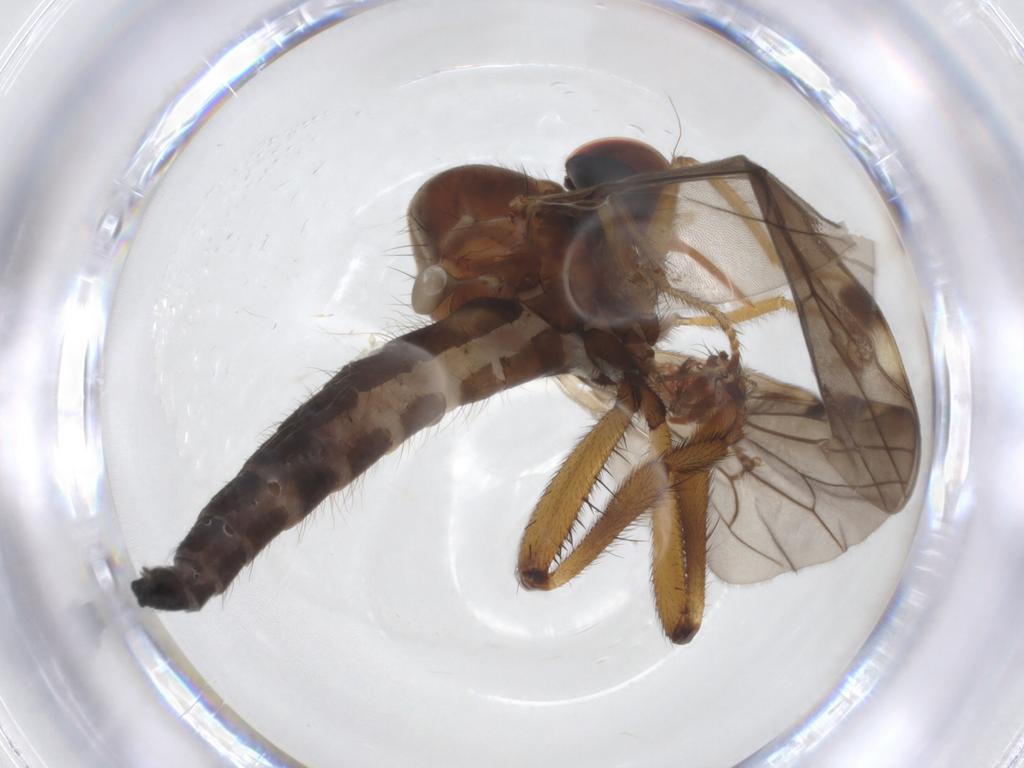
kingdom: Animalia
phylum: Arthropoda
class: Insecta
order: Diptera
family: Hybotidae
